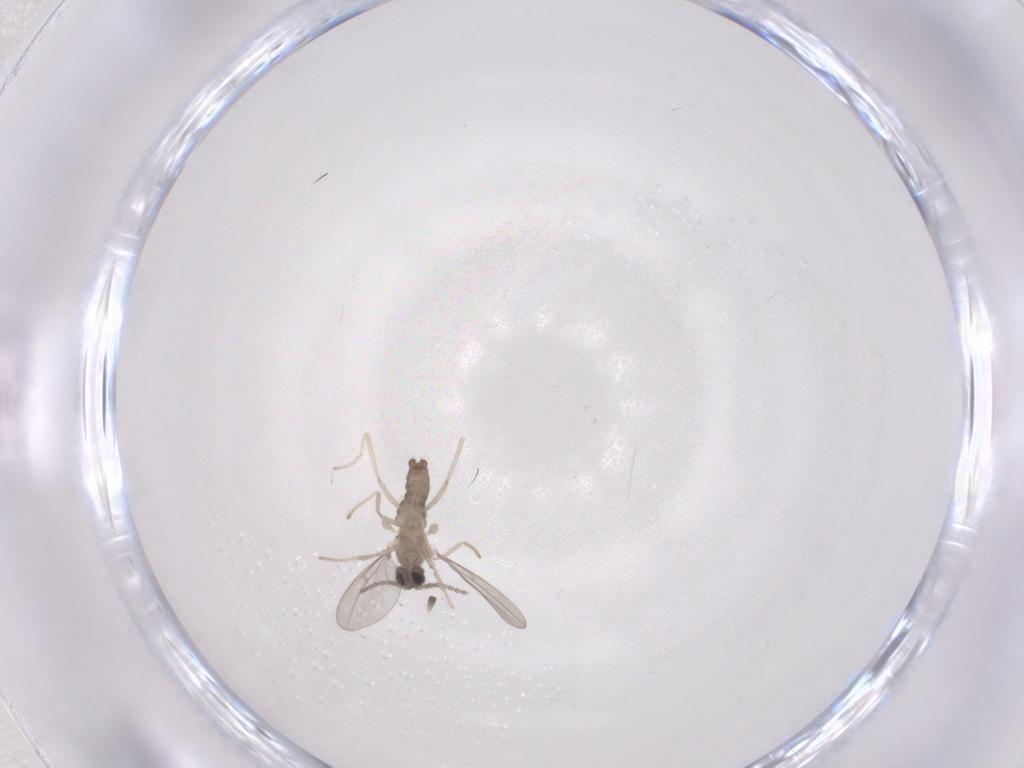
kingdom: Animalia
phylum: Arthropoda
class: Insecta
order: Diptera
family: Cecidomyiidae
